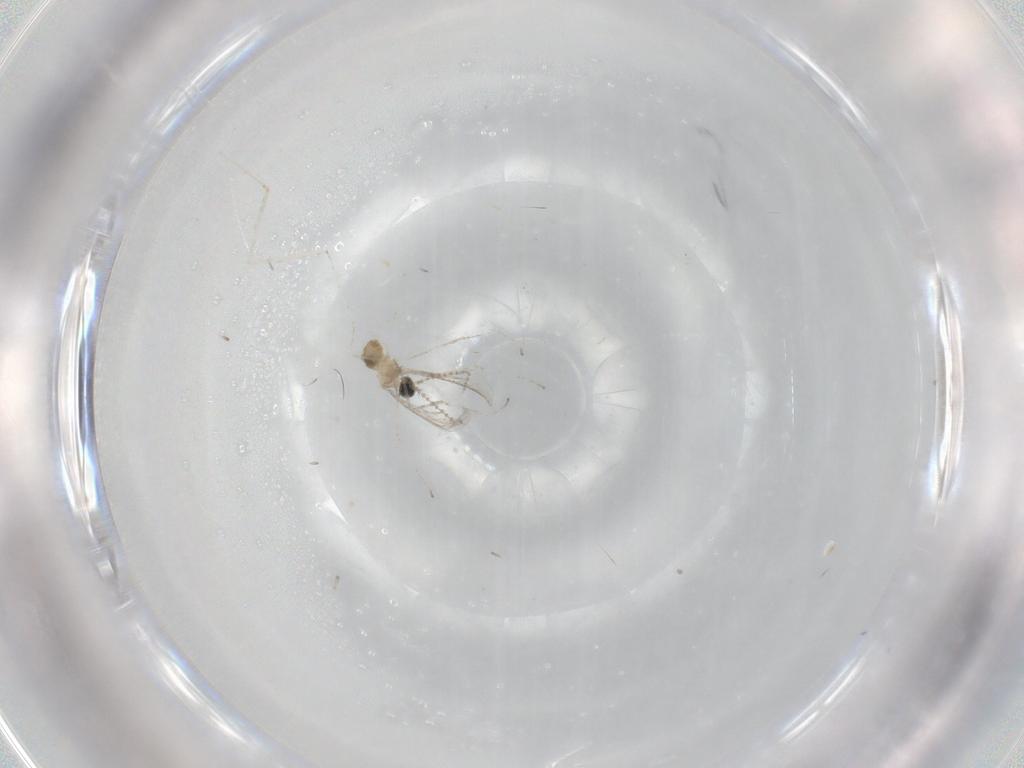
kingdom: Animalia
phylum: Arthropoda
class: Insecta
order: Diptera
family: Cecidomyiidae
